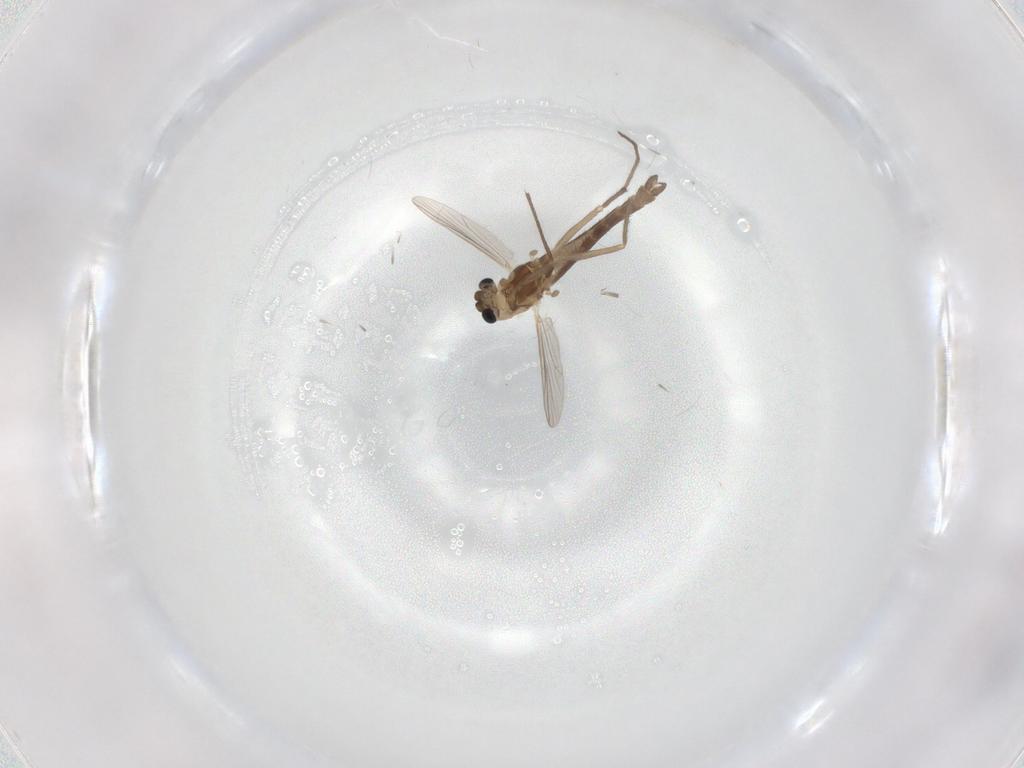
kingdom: Animalia
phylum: Arthropoda
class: Insecta
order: Diptera
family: Chironomidae
